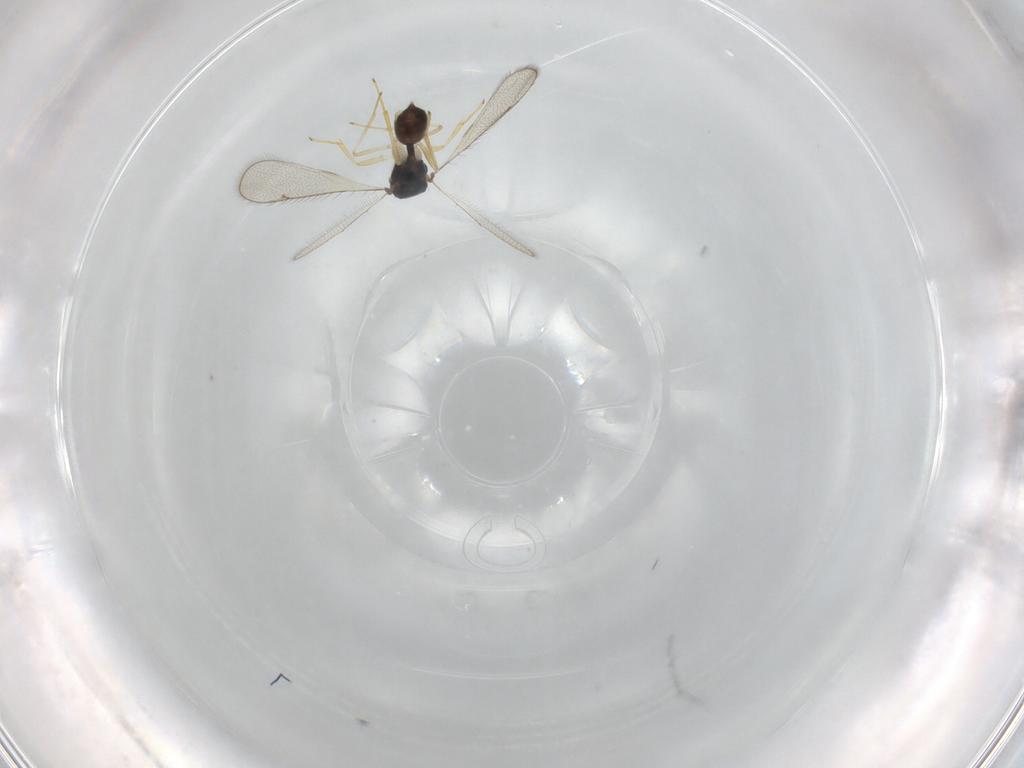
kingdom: Animalia
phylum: Arthropoda
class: Insecta
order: Hymenoptera
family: Diparidae
